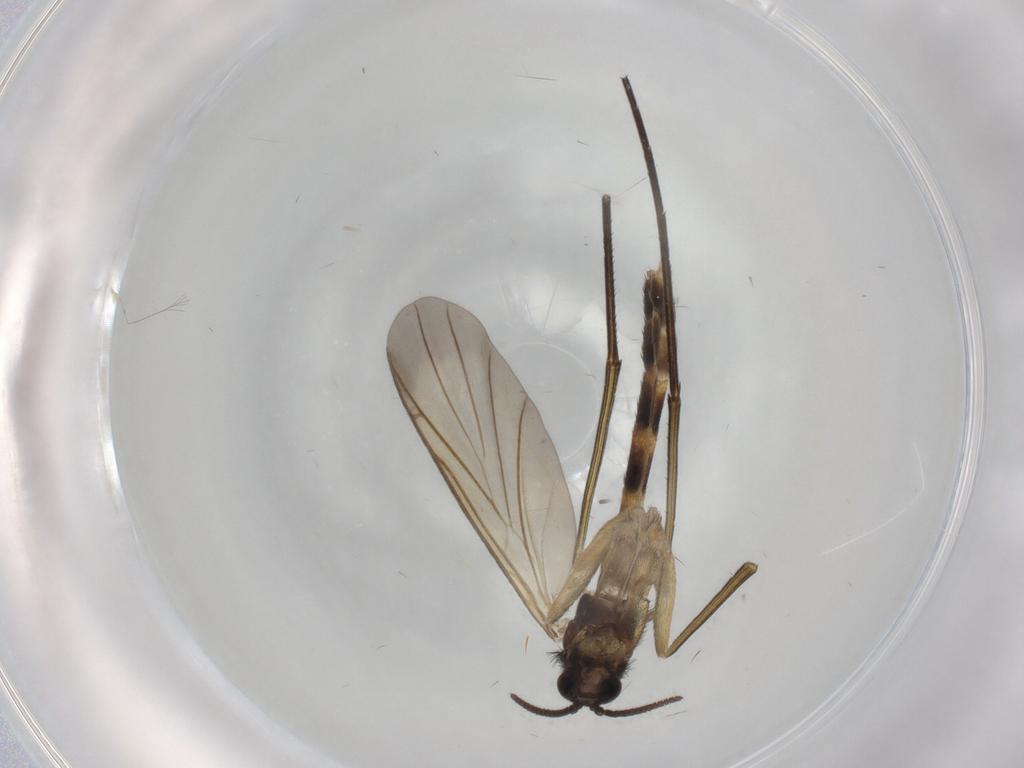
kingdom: Animalia
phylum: Arthropoda
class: Insecta
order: Diptera
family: Keroplatidae
